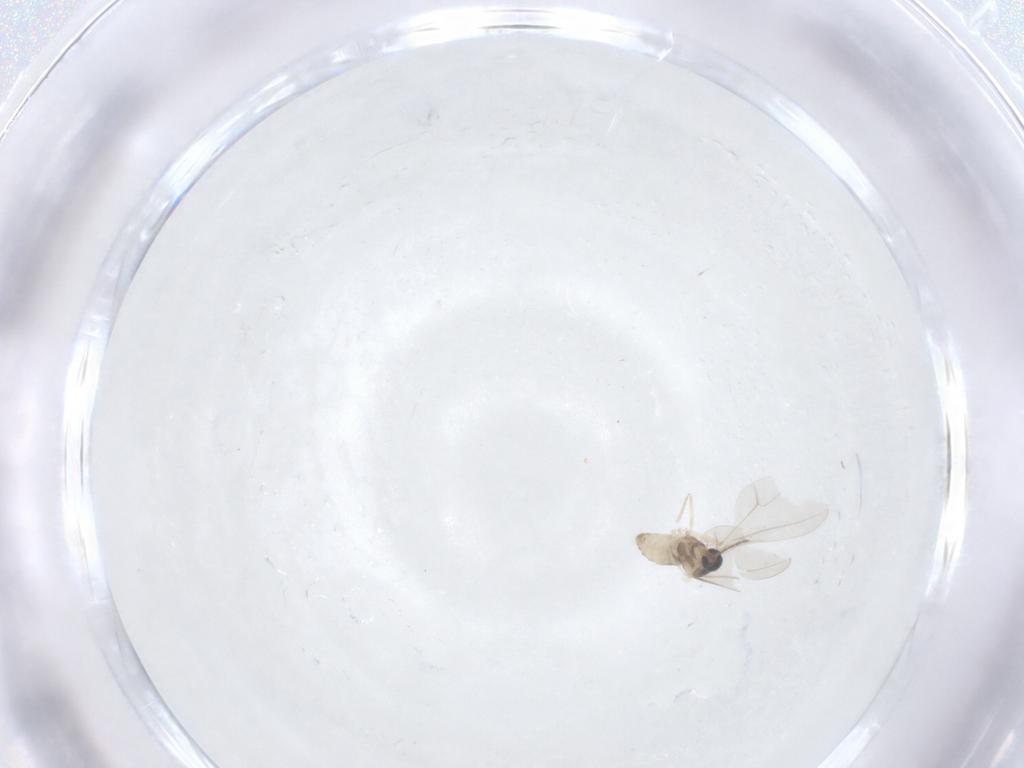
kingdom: Animalia
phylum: Arthropoda
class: Insecta
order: Diptera
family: Cecidomyiidae
